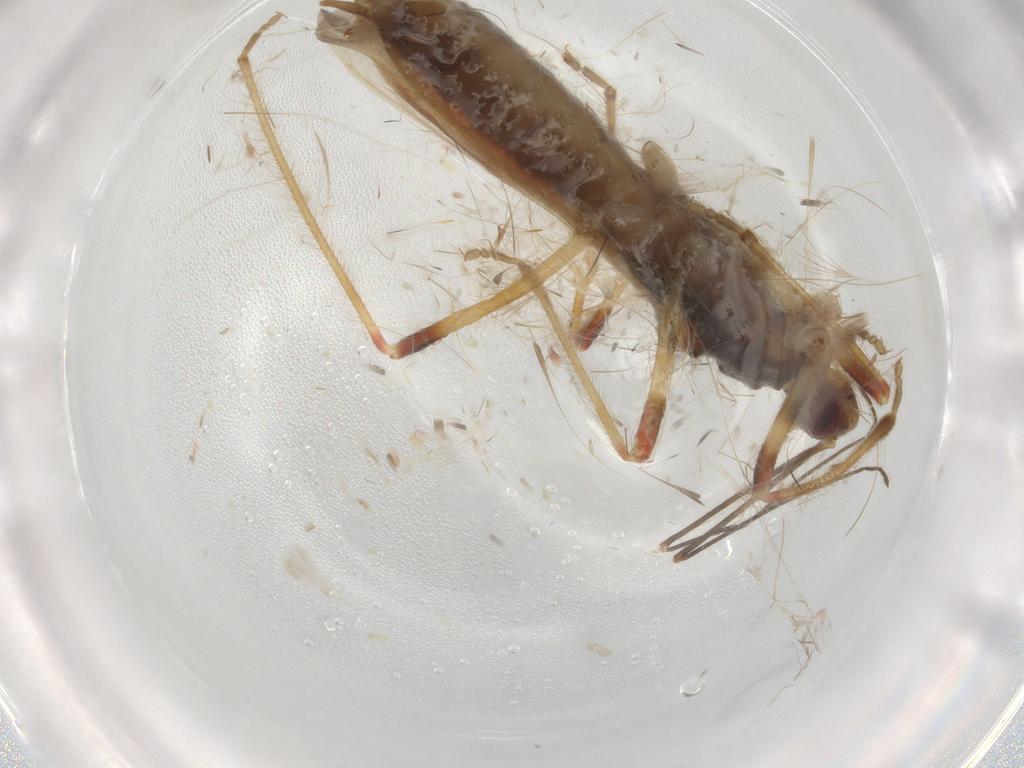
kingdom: Animalia
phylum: Arthropoda
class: Insecta
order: Hemiptera
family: Reduviidae
